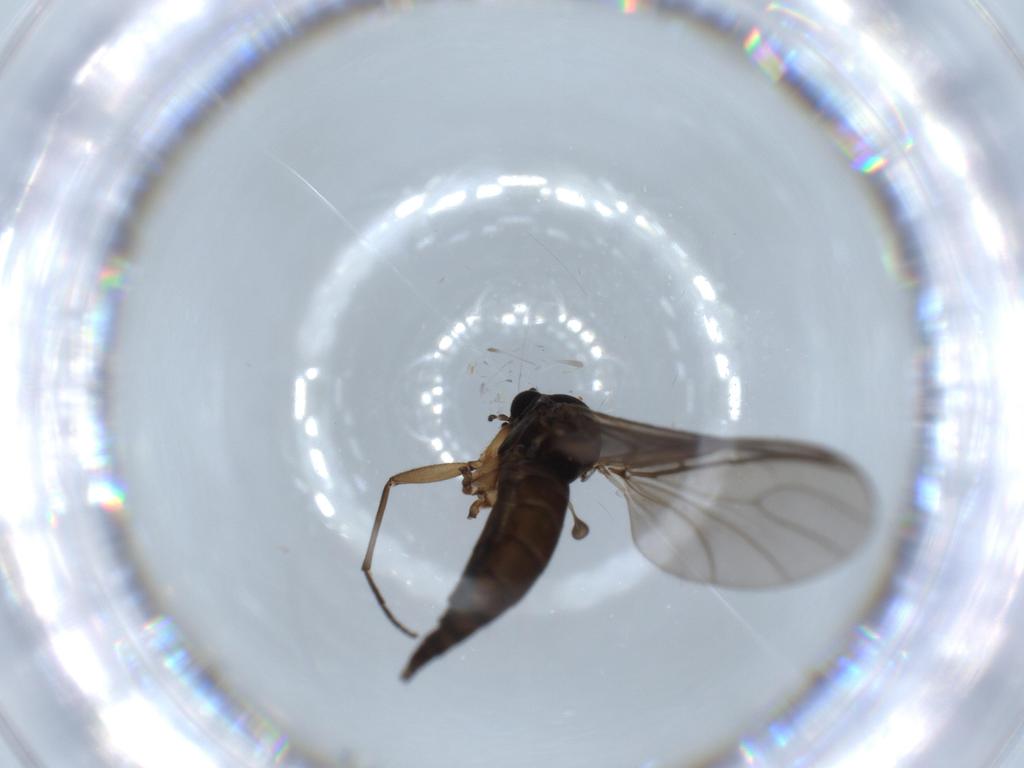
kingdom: Animalia
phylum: Arthropoda
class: Insecta
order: Diptera
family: Sciaridae
